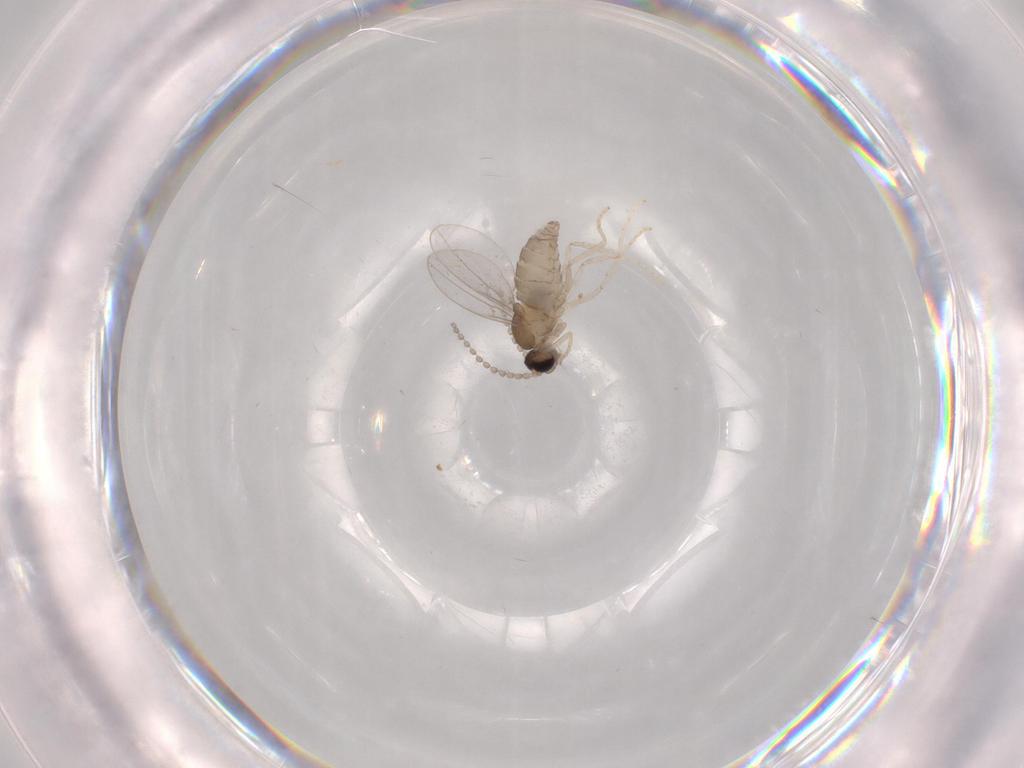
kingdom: Animalia
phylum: Arthropoda
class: Insecta
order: Diptera
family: Cecidomyiidae
